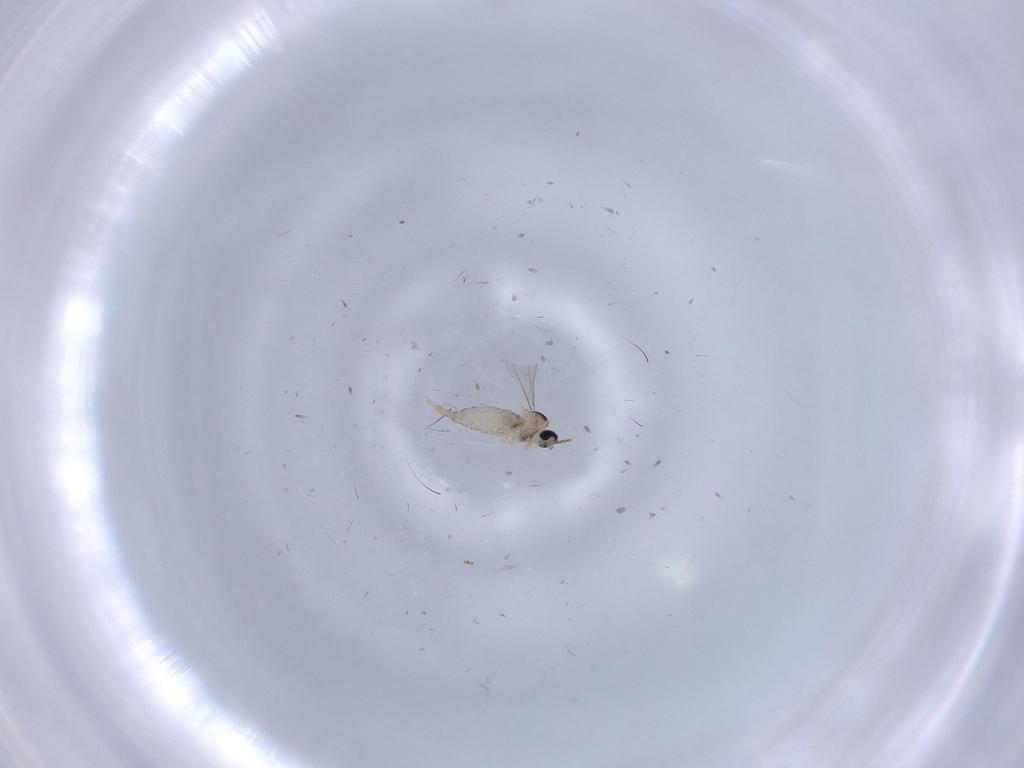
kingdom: Animalia
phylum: Arthropoda
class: Insecta
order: Diptera
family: Chironomidae
